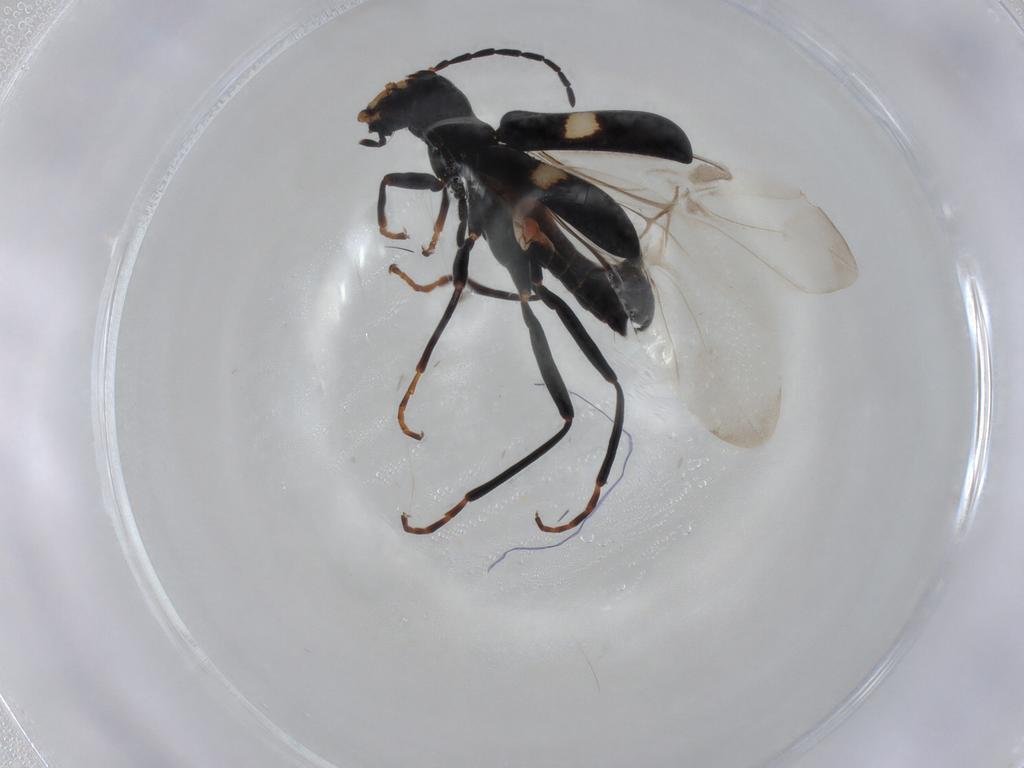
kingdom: Animalia
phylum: Arthropoda
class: Insecta
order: Coleoptera
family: Melyridae
